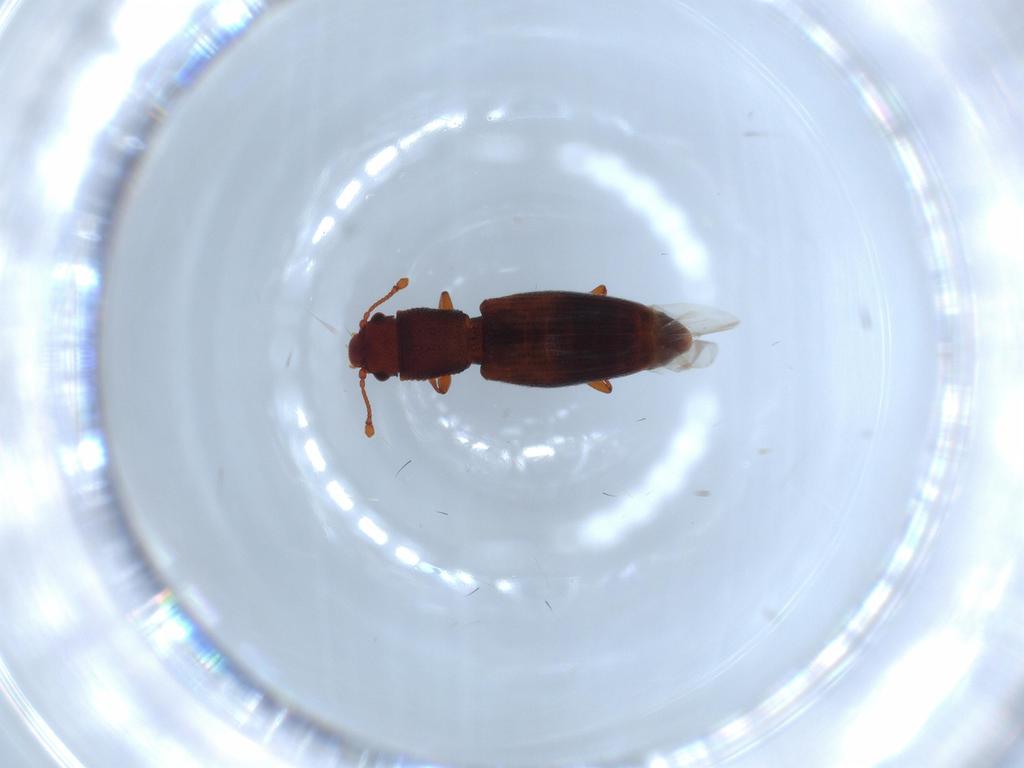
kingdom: Animalia
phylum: Arthropoda
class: Insecta
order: Coleoptera
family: Monotomidae
